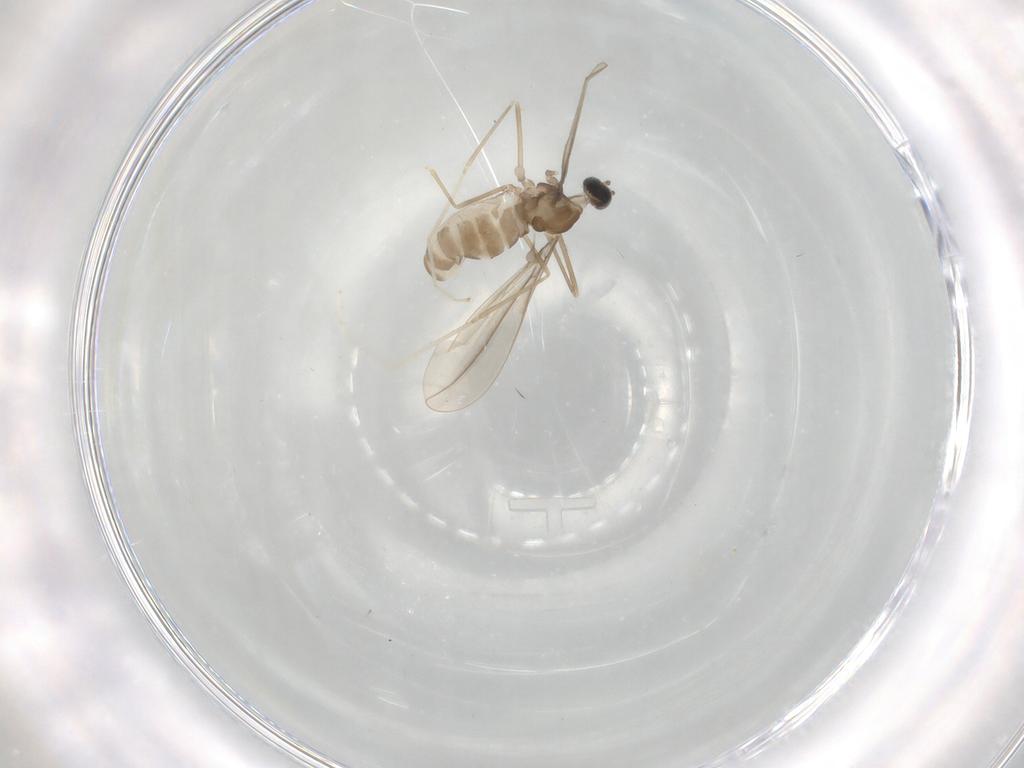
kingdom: Animalia
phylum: Arthropoda
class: Insecta
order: Diptera
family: Cecidomyiidae
